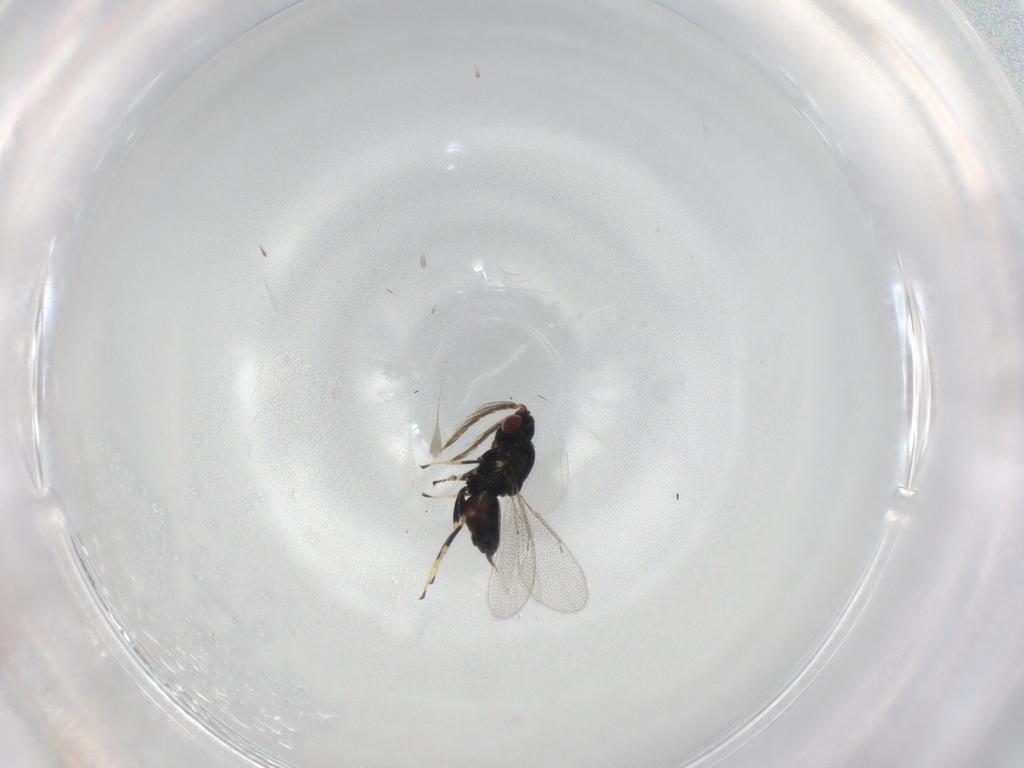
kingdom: Animalia
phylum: Arthropoda
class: Insecta
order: Hymenoptera
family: Eulophidae
